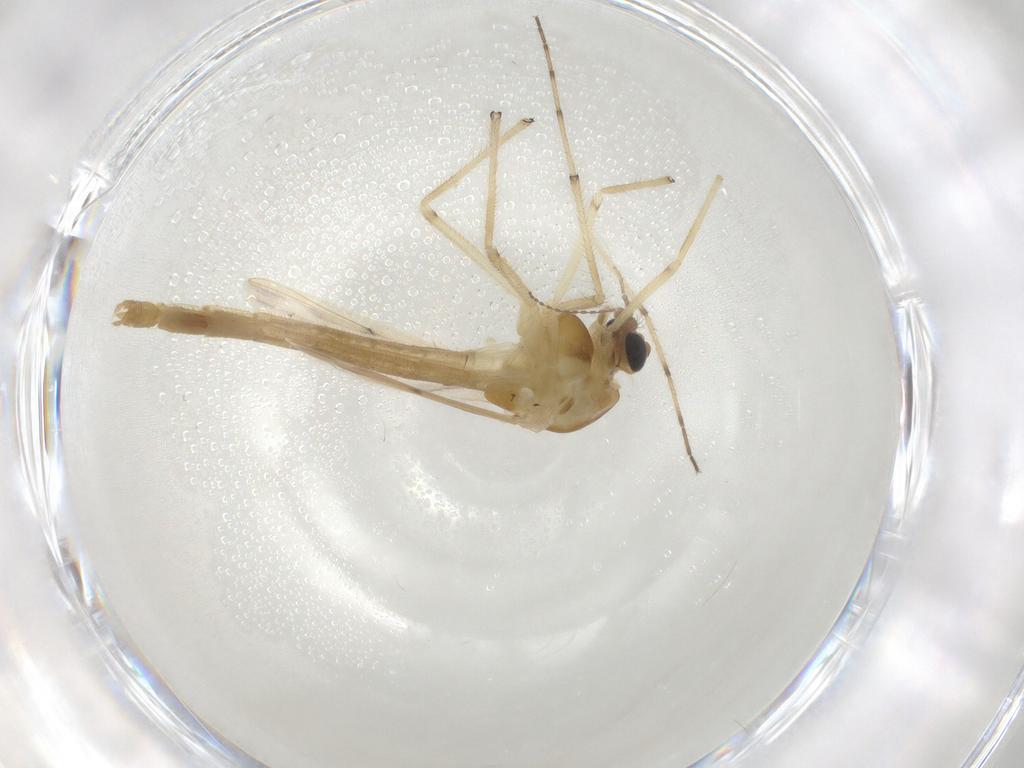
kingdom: Animalia
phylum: Arthropoda
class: Insecta
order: Diptera
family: Chironomidae
